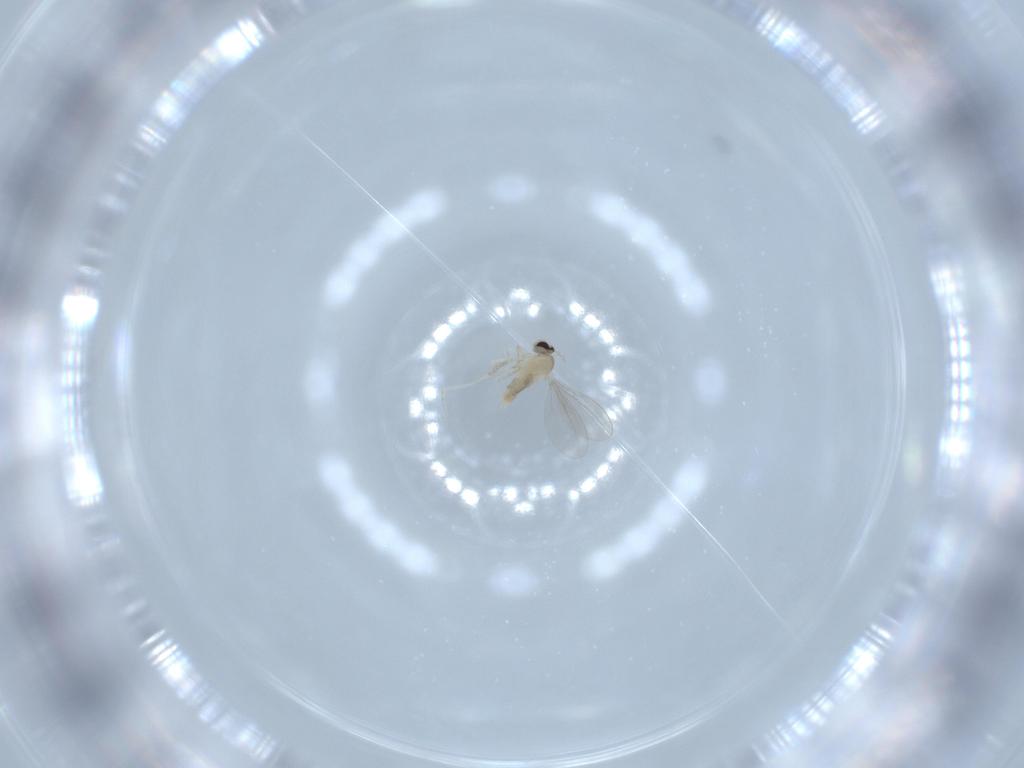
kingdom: Animalia
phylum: Arthropoda
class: Insecta
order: Diptera
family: Cecidomyiidae
